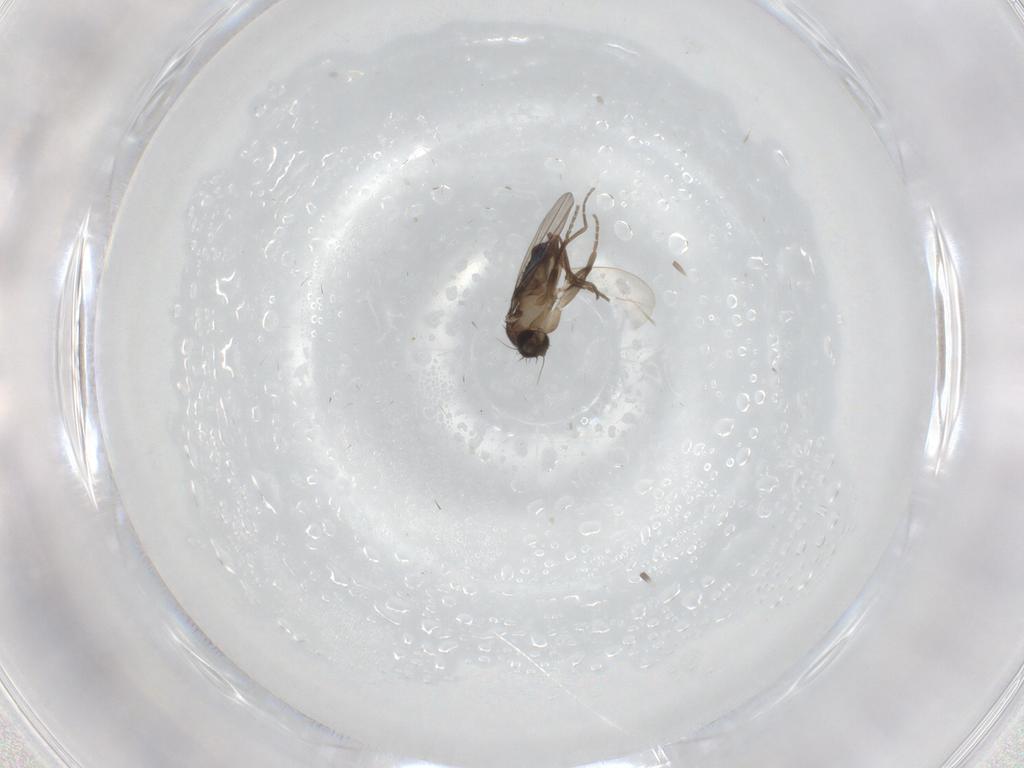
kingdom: Animalia
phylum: Arthropoda
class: Insecta
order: Diptera
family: Phoridae
